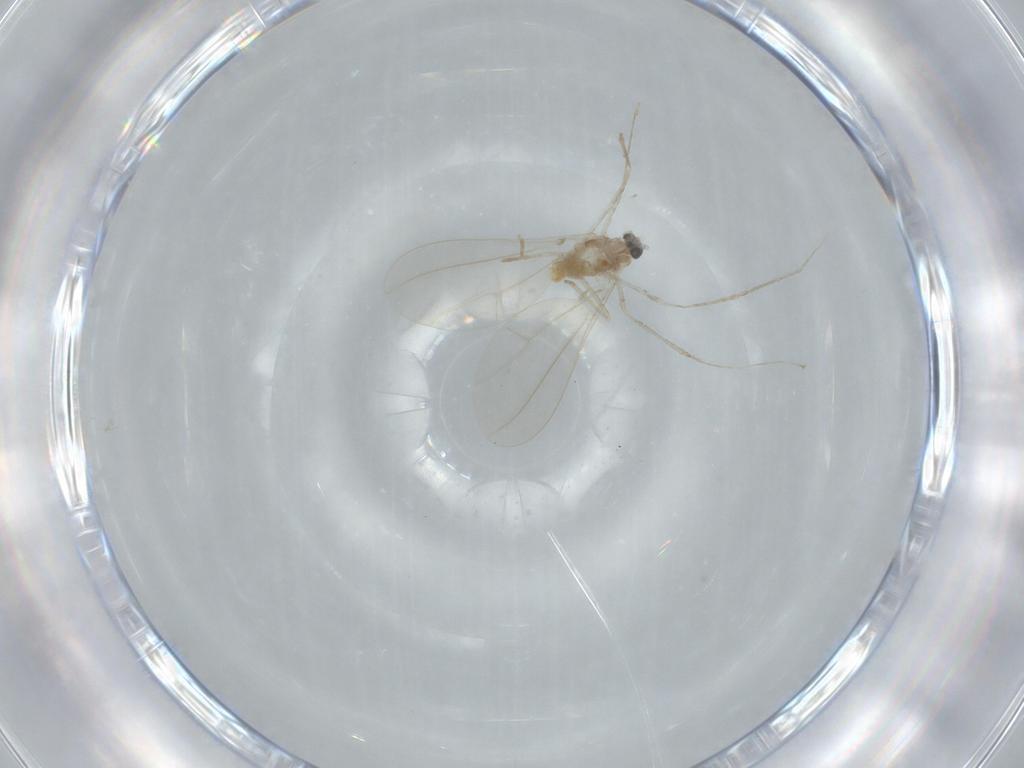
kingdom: Animalia
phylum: Arthropoda
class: Insecta
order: Diptera
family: Cecidomyiidae
